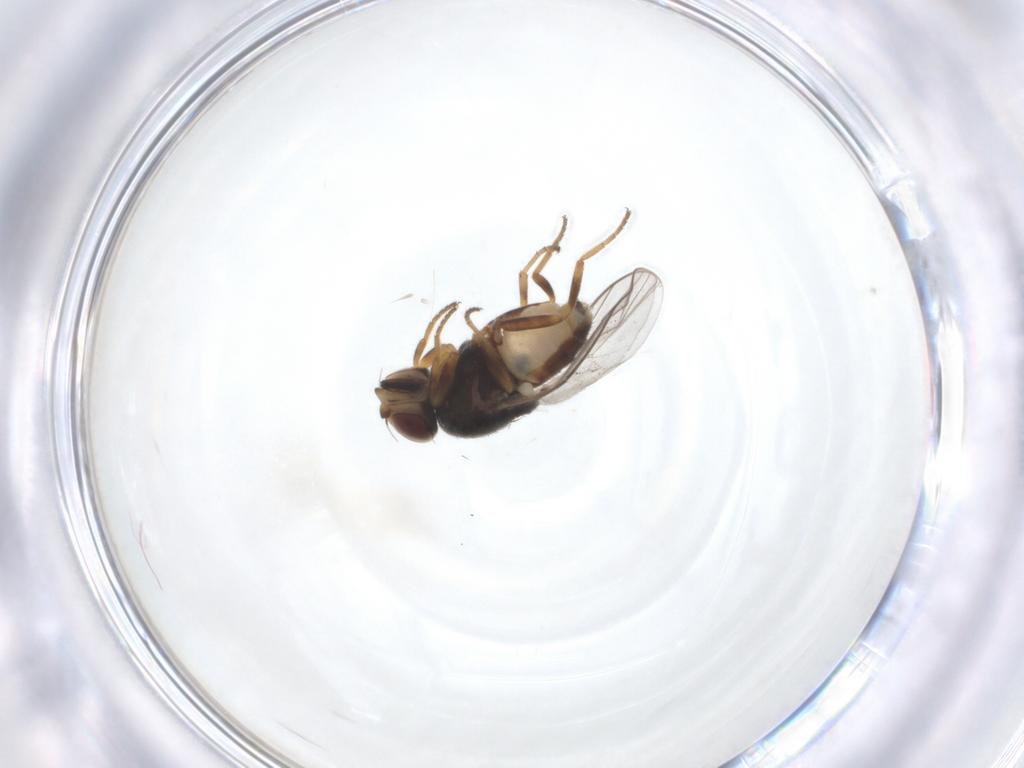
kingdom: Animalia
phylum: Arthropoda
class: Insecta
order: Diptera
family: Chloropidae
